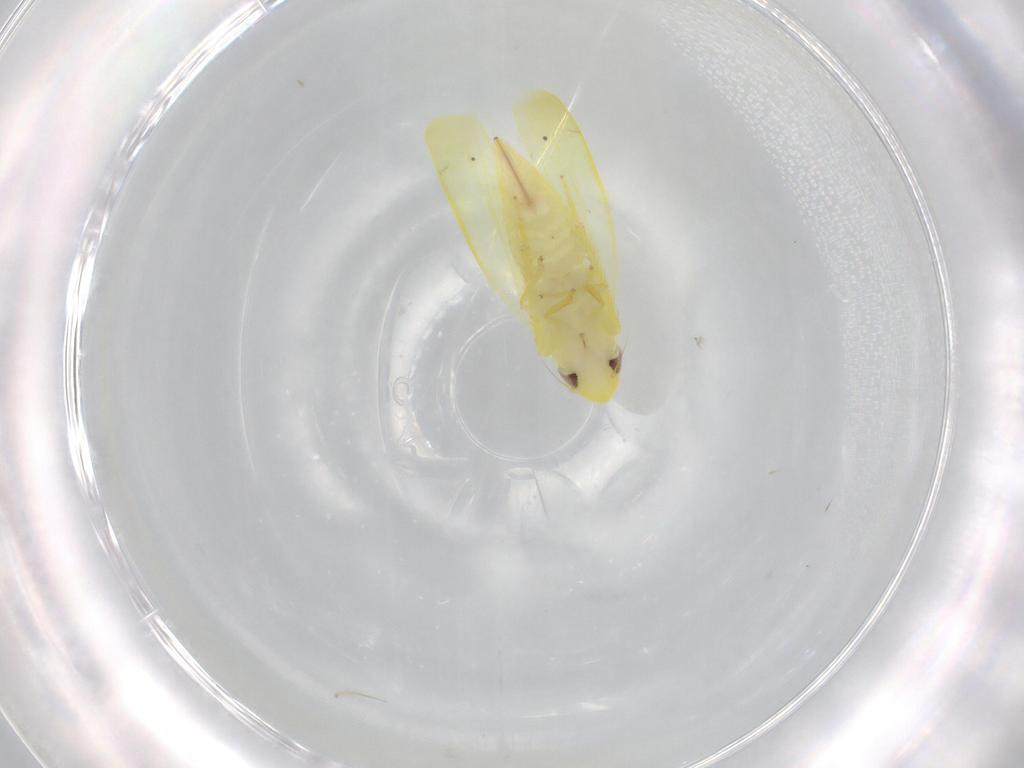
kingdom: Animalia
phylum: Arthropoda
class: Insecta
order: Hemiptera
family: Cicadellidae
